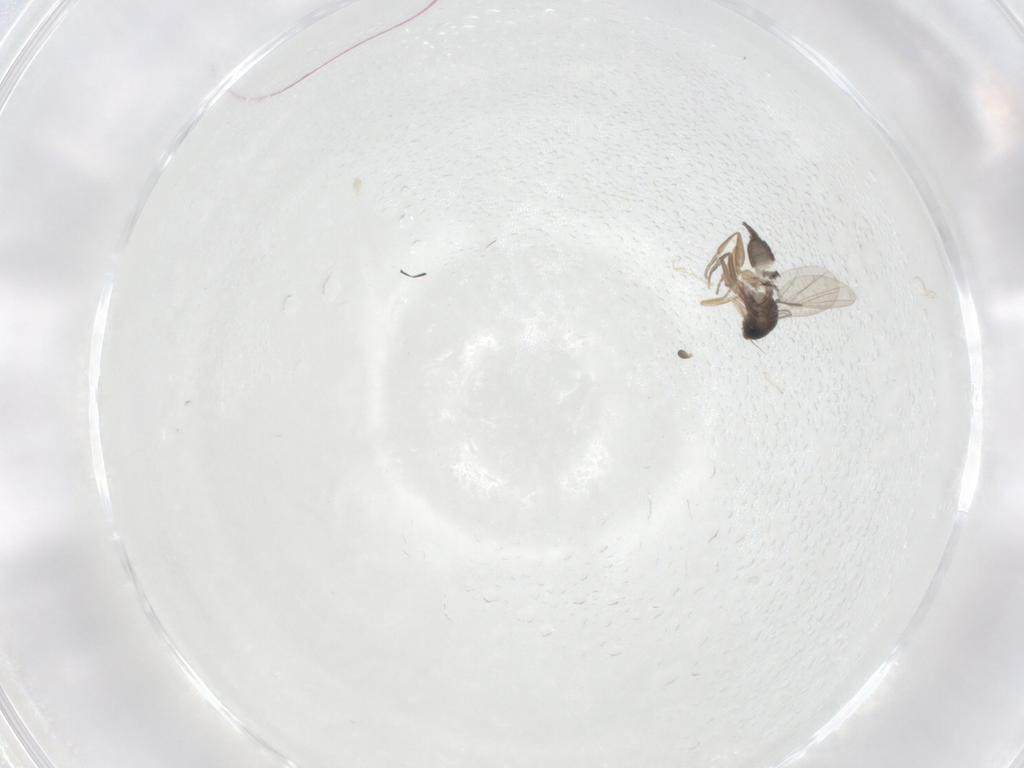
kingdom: Animalia
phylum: Arthropoda
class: Insecta
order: Diptera
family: Phoridae
